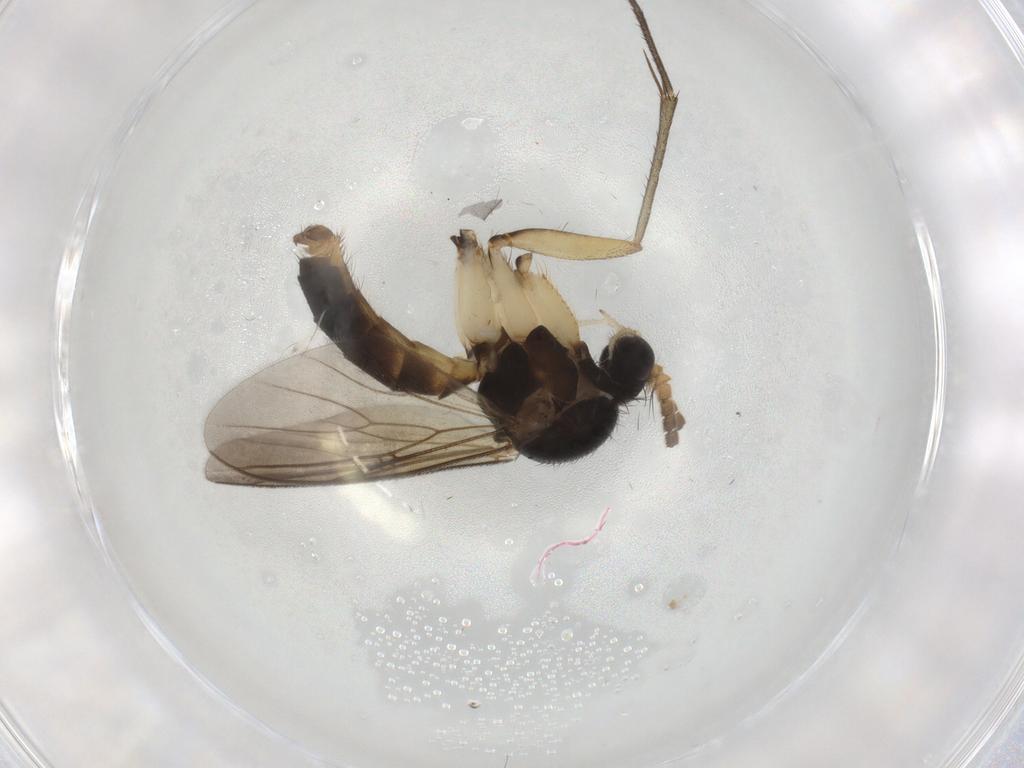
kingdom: Animalia
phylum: Arthropoda
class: Insecta
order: Diptera
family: Mycetophilidae
